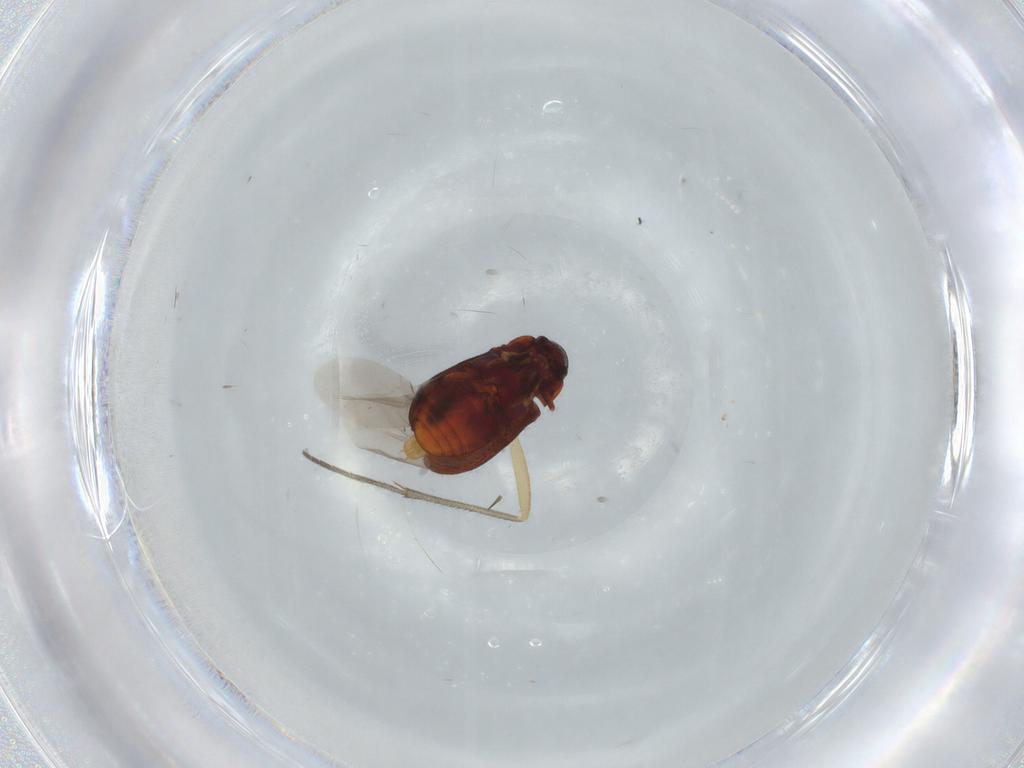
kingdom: Animalia
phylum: Arthropoda
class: Insecta
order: Coleoptera
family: Ptinidae
